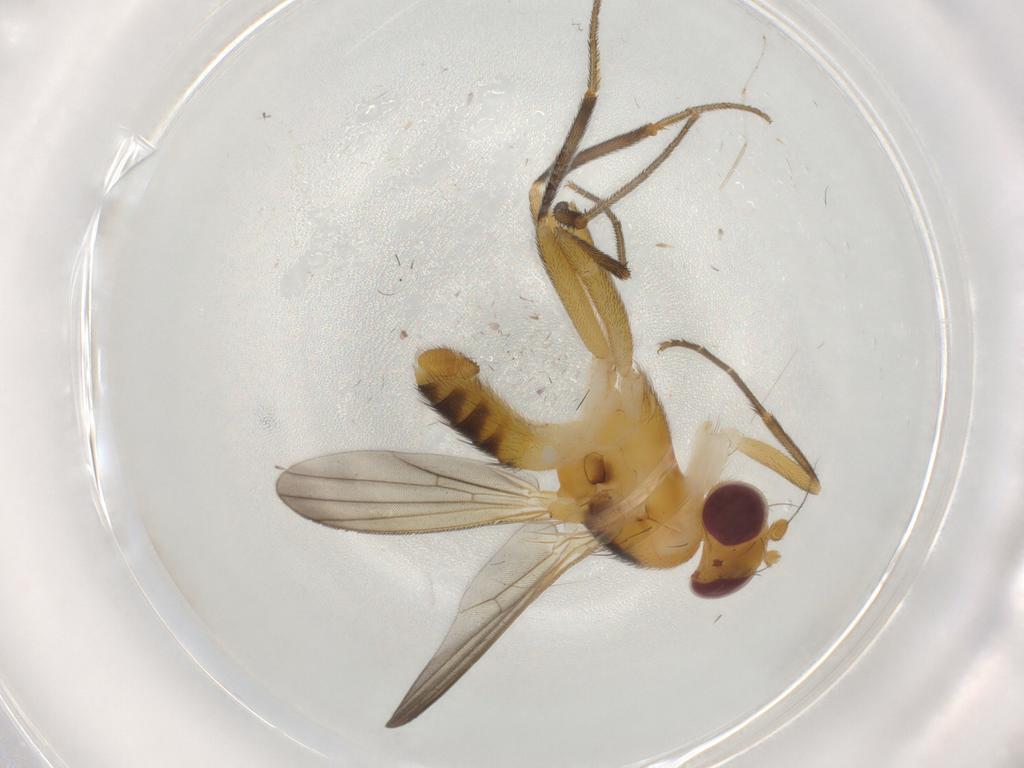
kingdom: Animalia
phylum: Arthropoda
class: Insecta
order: Diptera
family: Clusiidae
